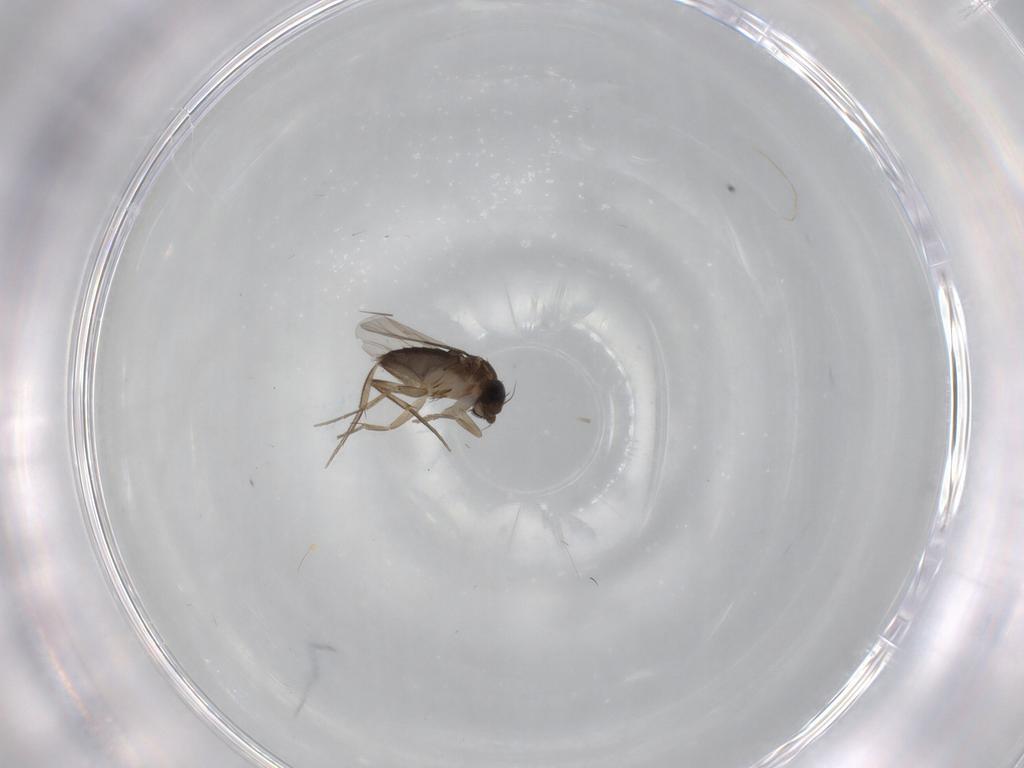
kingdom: Animalia
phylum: Arthropoda
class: Insecta
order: Diptera
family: Phoridae
